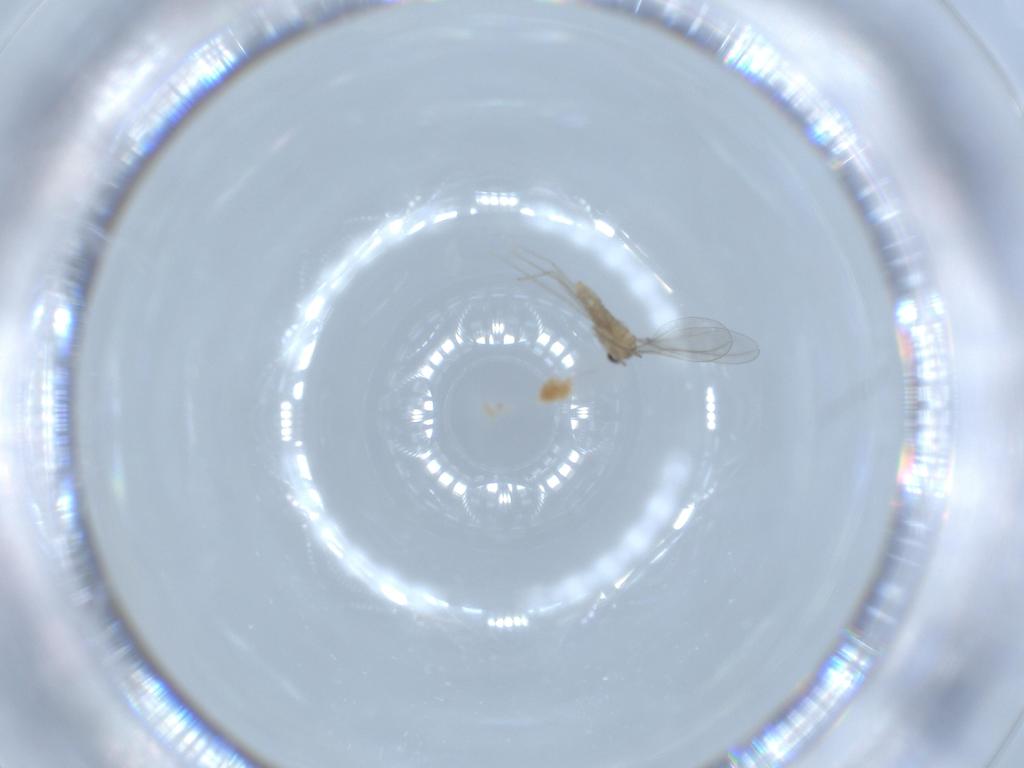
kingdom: Animalia
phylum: Arthropoda
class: Insecta
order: Diptera
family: Cecidomyiidae
